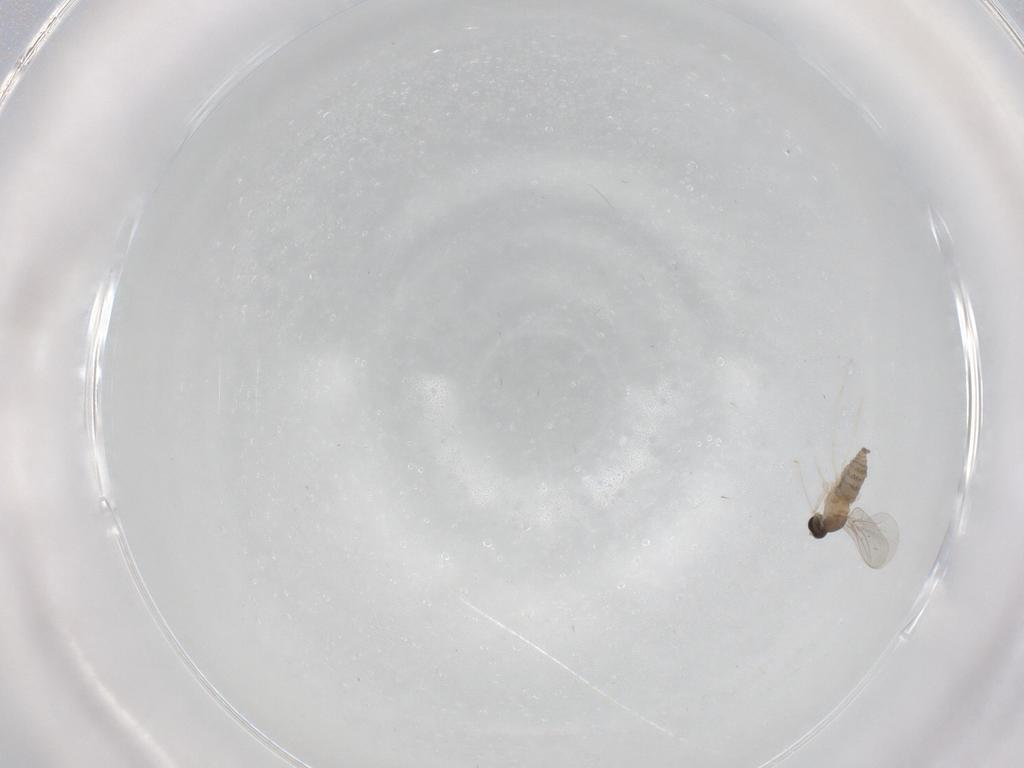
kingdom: Animalia
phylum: Arthropoda
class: Insecta
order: Diptera
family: Cecidomyiidae
